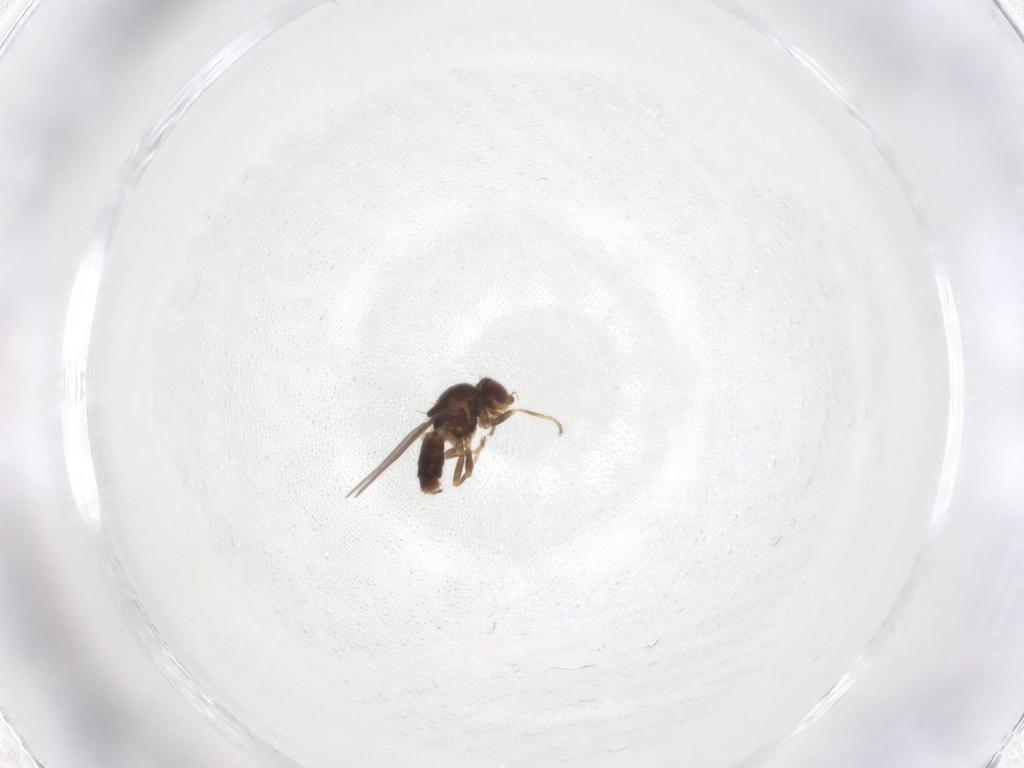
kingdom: Animalia
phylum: Arthropoda
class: Insecta
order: Diptera
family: Chloropidae
